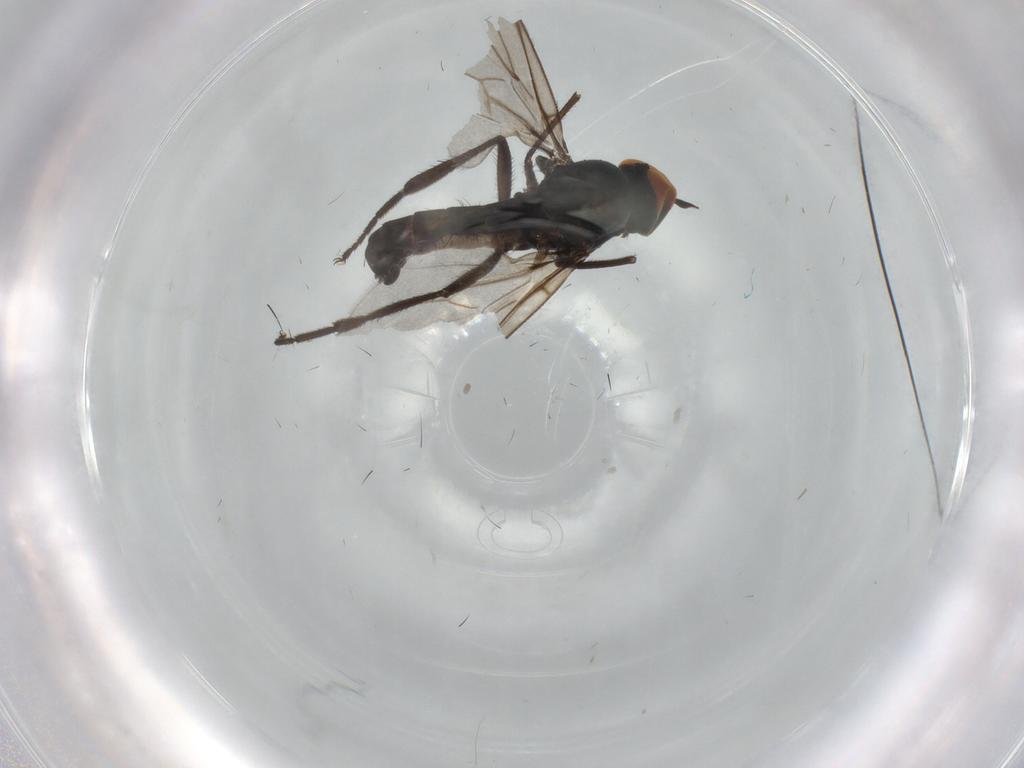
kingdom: Animalia
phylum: Arthropoda
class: Insecta
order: Diptera
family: Hybotidae
